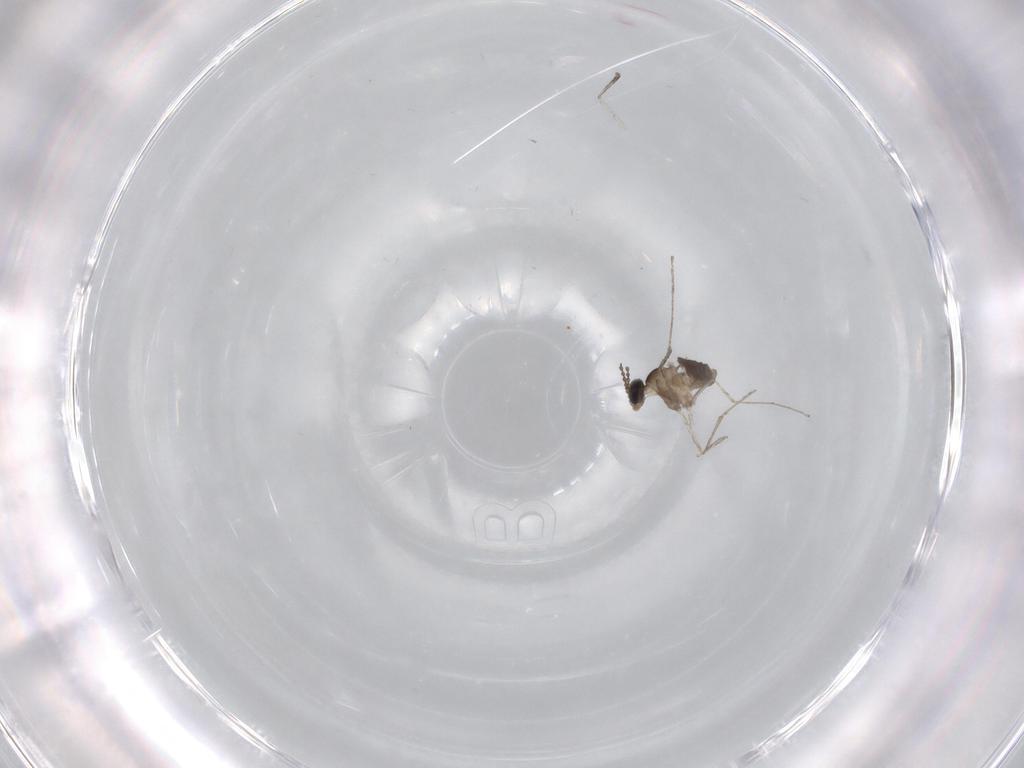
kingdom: Animalia
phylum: Arthropoda
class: Insecta
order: Diptera
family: Sciaridae
